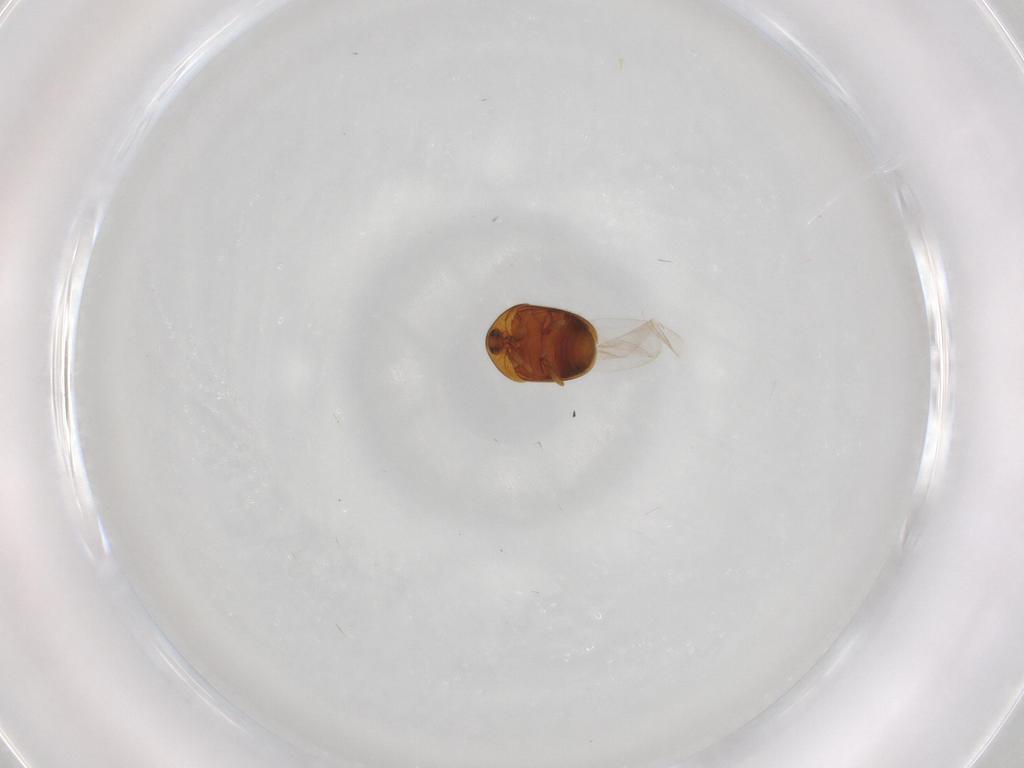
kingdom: Animalia
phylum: Arthropoda
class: Insecta
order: Coleoptera
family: Corylophidae
